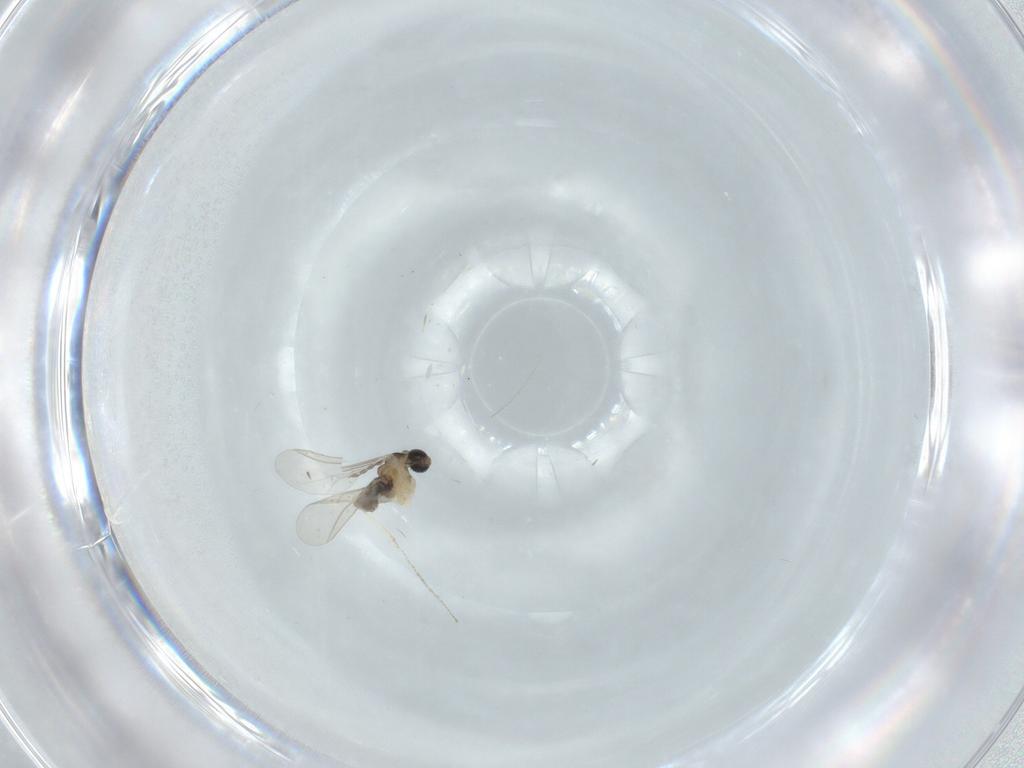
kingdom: Animalia
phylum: Arthropoda
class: Insecta
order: Diptera
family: Cecidomyiidae
